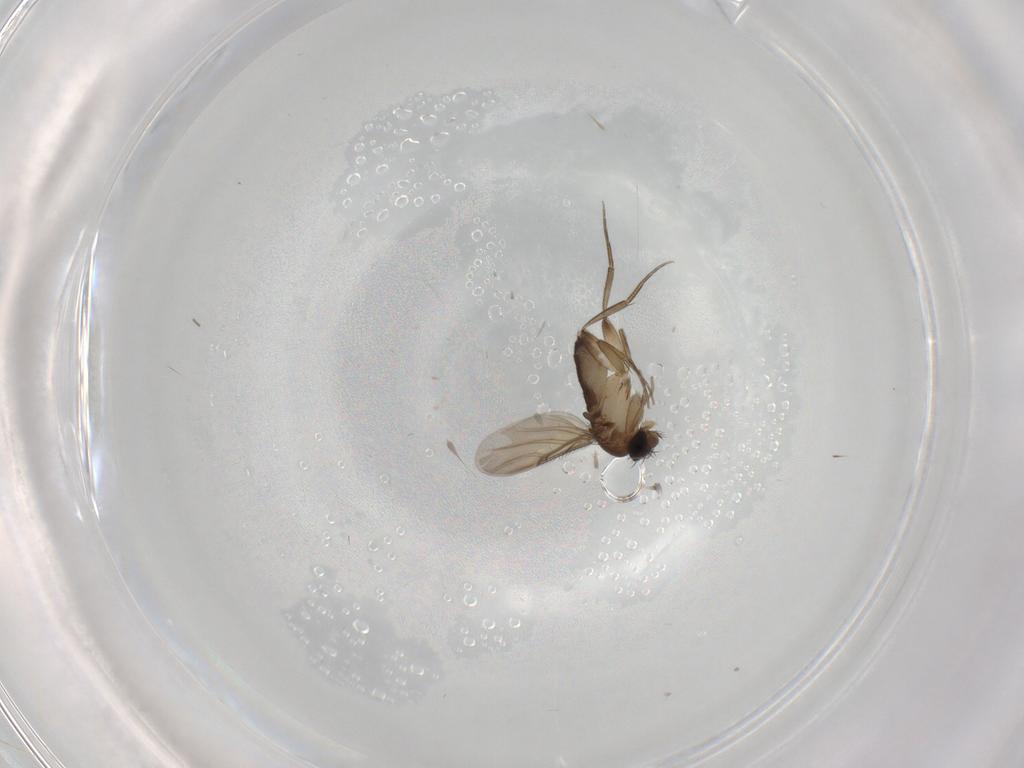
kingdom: Animalia
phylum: Arthropoda
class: Insecta
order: Diptera
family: Phoridae
